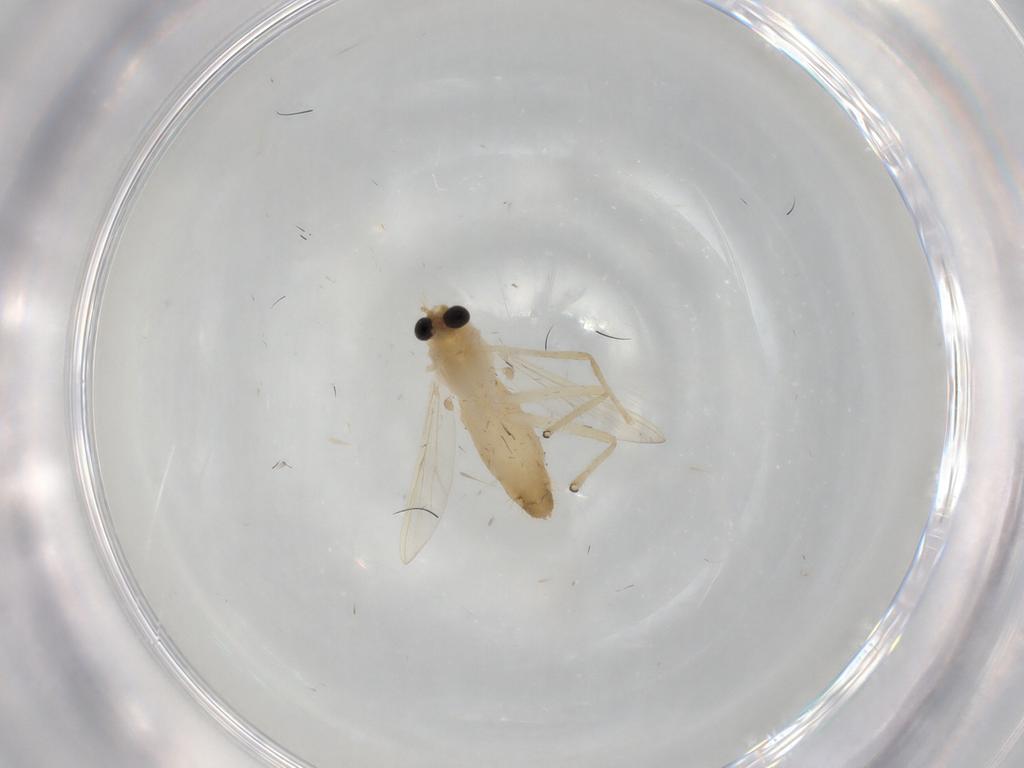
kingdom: Animalia
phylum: Arthropoda
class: Insecta
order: Diptera
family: Chironomidae
